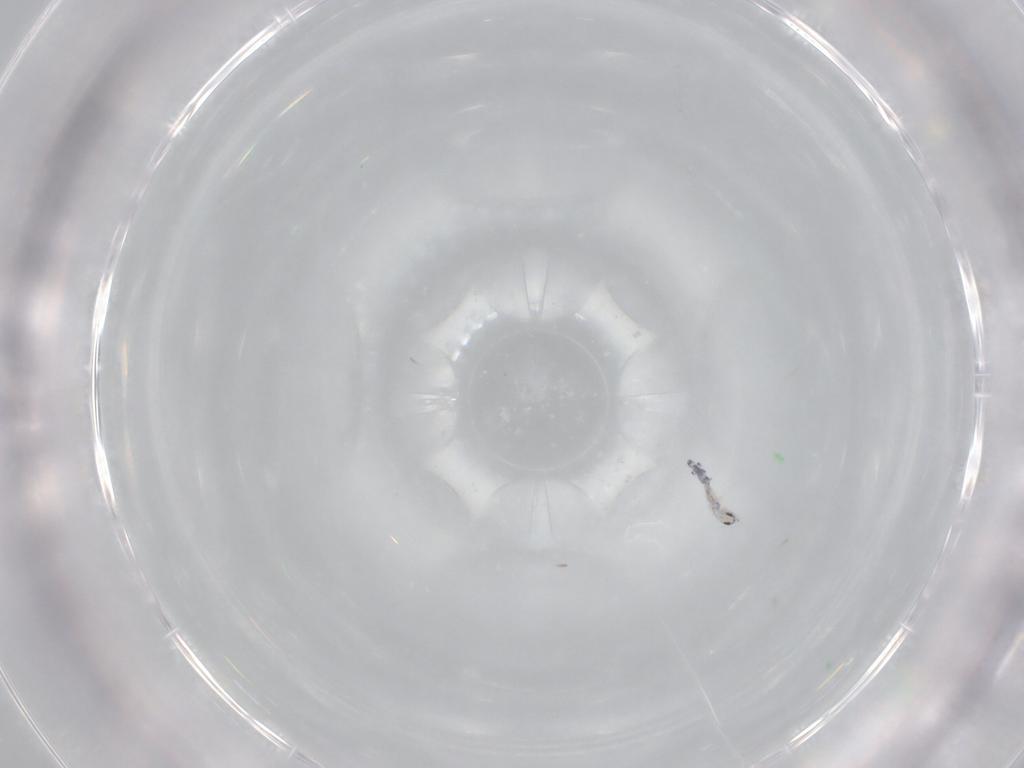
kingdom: Animalia
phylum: Arthropoda
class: Collembola
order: Entomobryomorpha
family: Entomobryidae
